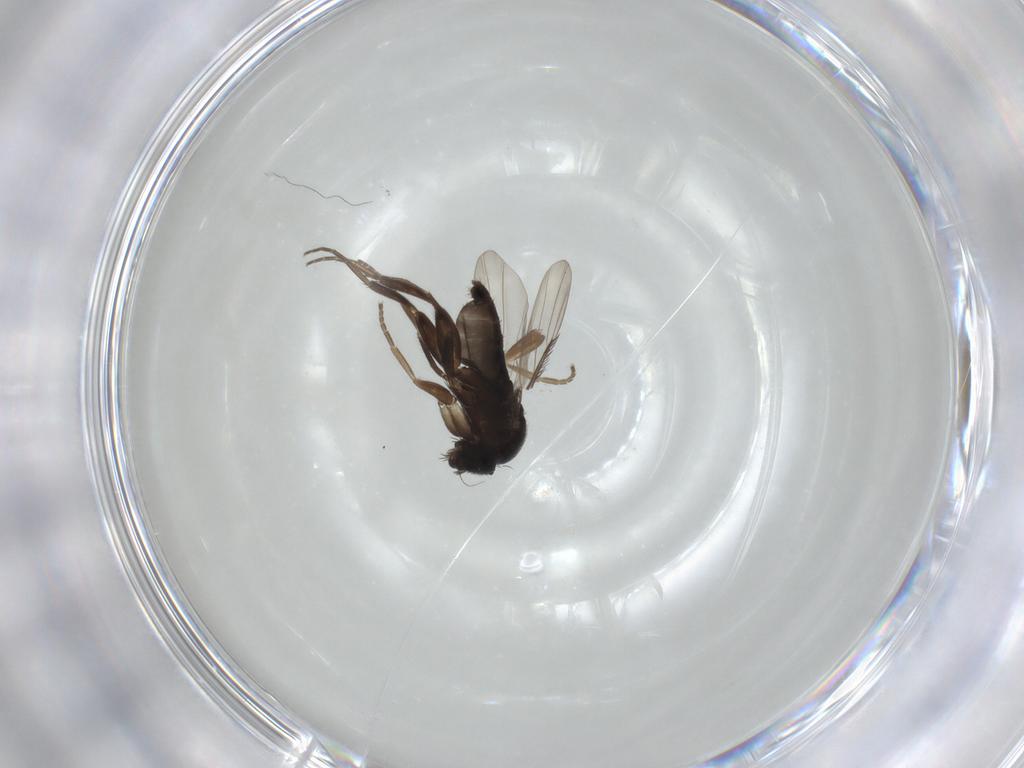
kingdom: Animalia
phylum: Arthropoda
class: Insecta
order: Diptera
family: Phoridae
